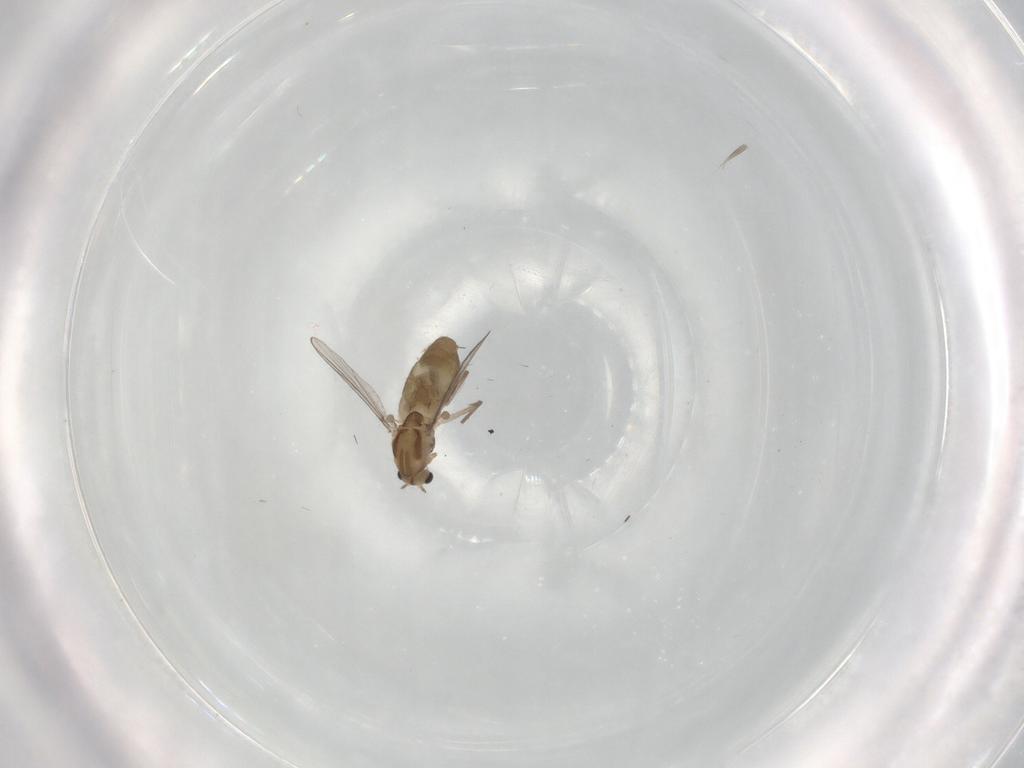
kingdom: Animalia
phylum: Arthropoda
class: Insecta
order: Diptera
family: Chironomidae
